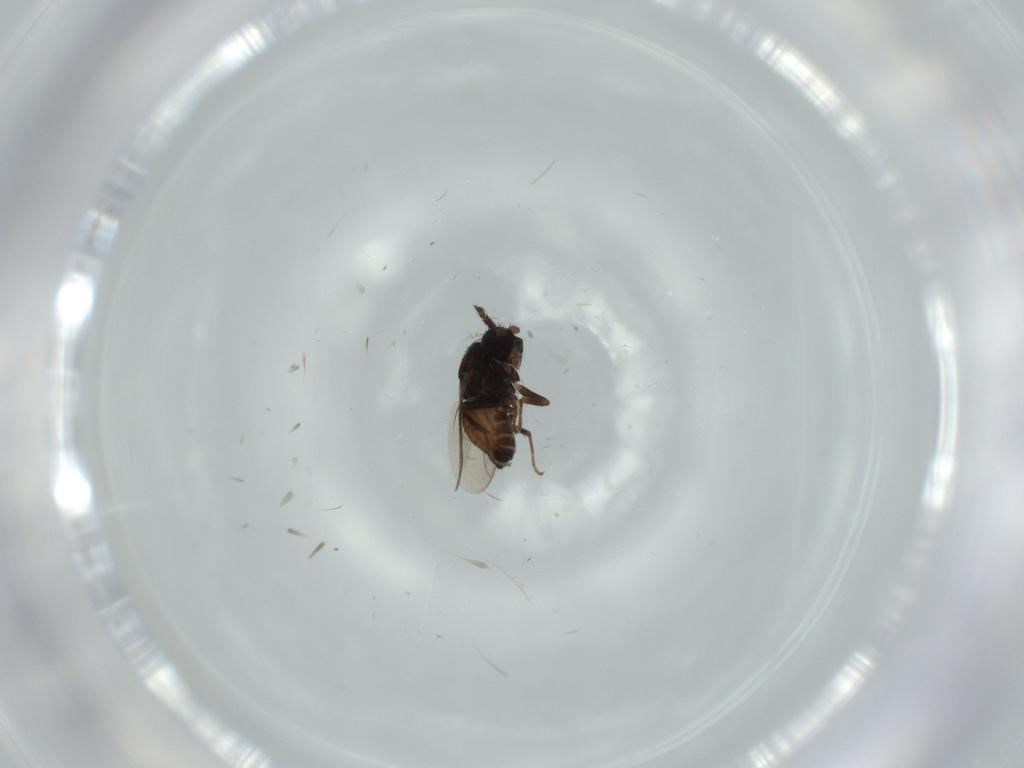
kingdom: Animalia
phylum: Arthropoda
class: Insecta
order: Diptera
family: Sphaeroceridae
